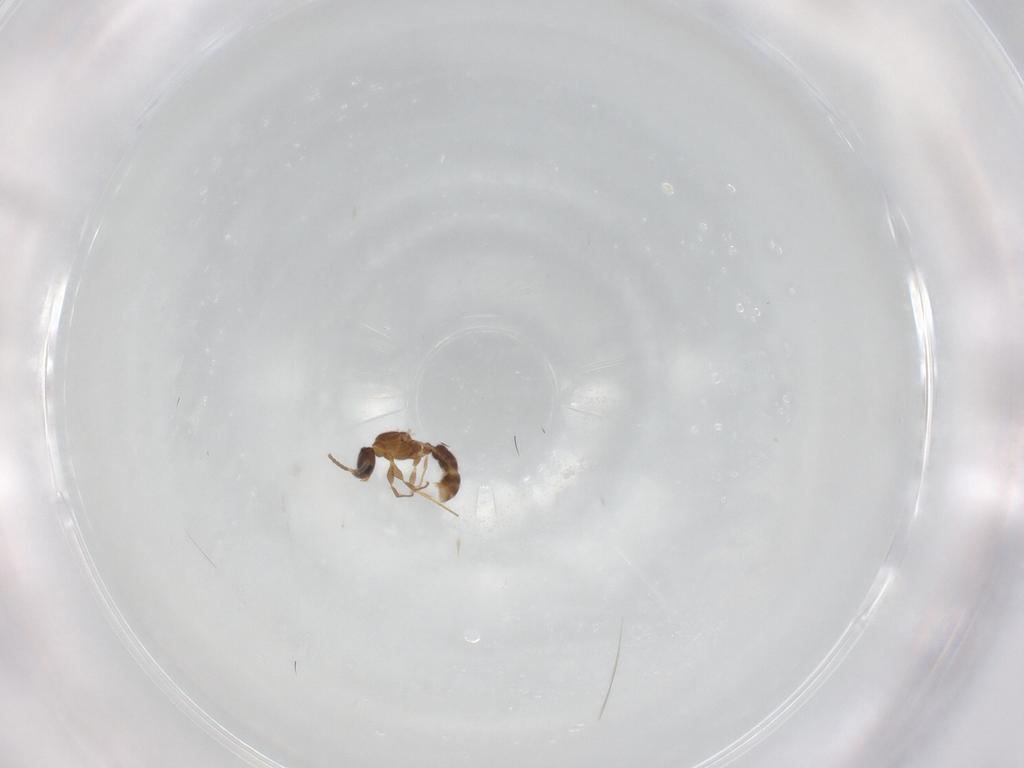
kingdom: Animalia
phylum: Arthropoda
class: Insecta
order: Hymenoptera
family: Formicidae
